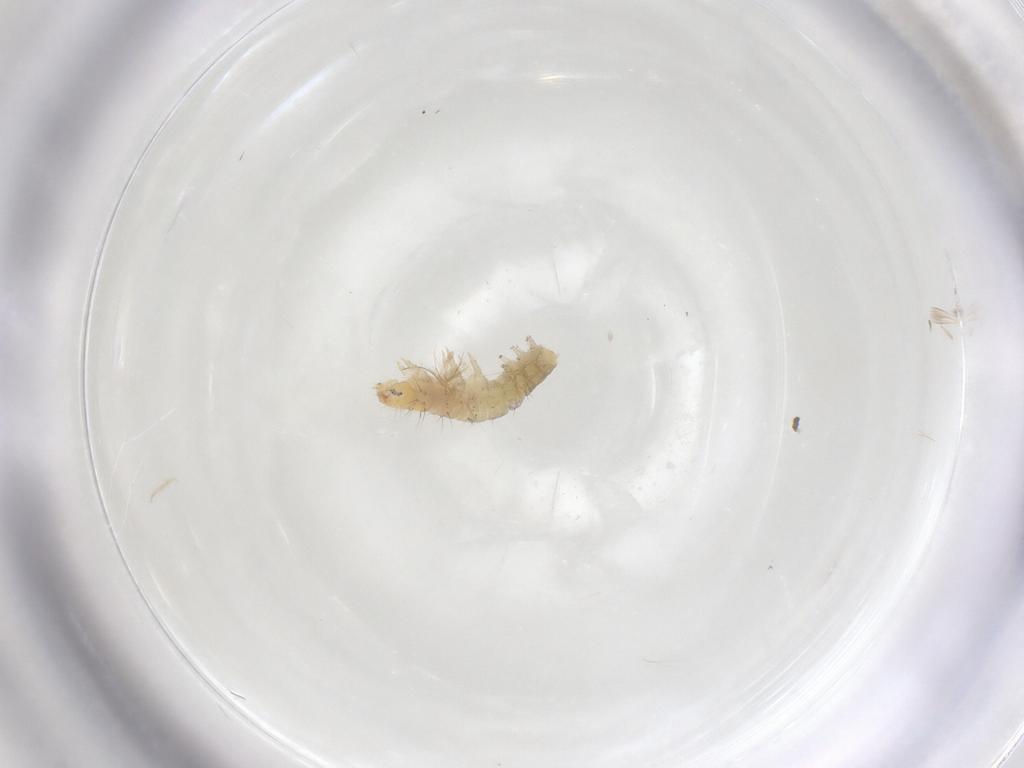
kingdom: Animalia
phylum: Arthropoda
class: Insecta
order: Lepidoptera
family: Gelechiidae
